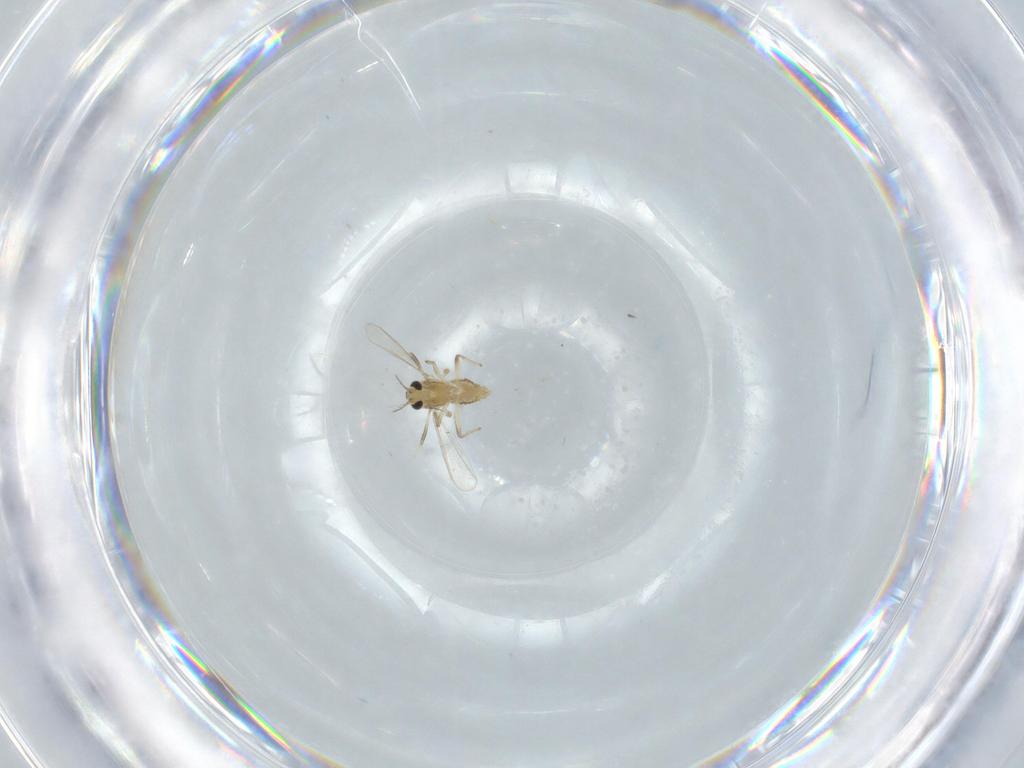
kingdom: Animalia
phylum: Arthropoda
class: Insecta
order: Diptera
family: Chironomidae
